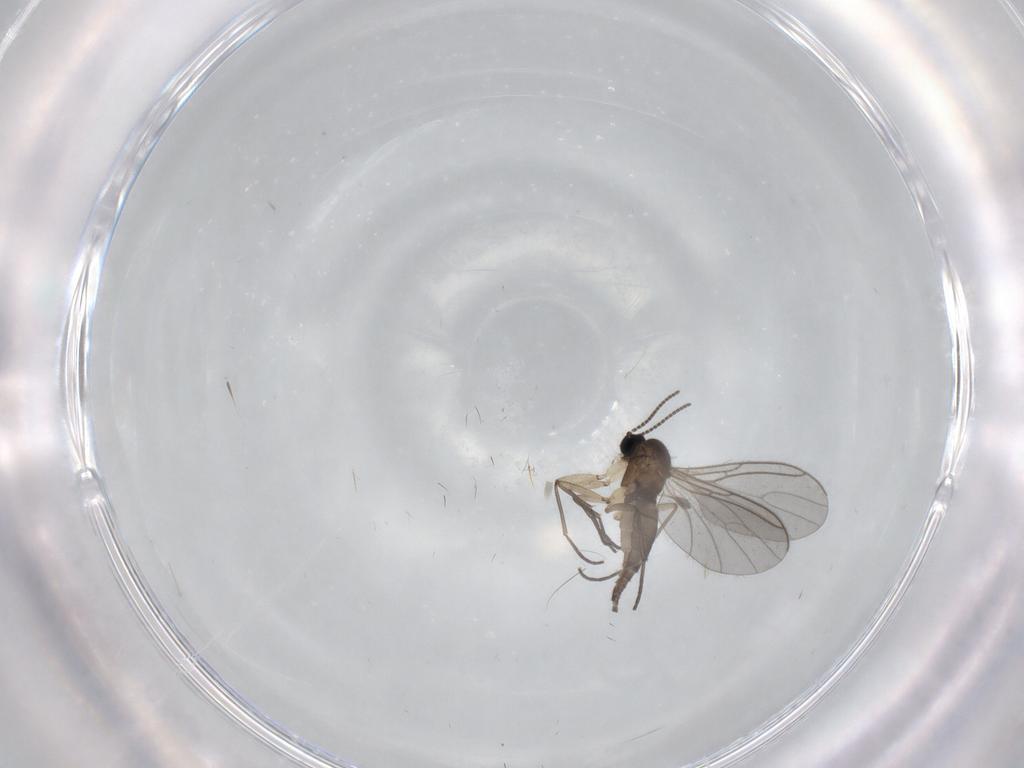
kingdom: Animalia
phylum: Arthropoda
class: Insecta
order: Diptera
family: Sciaridae
